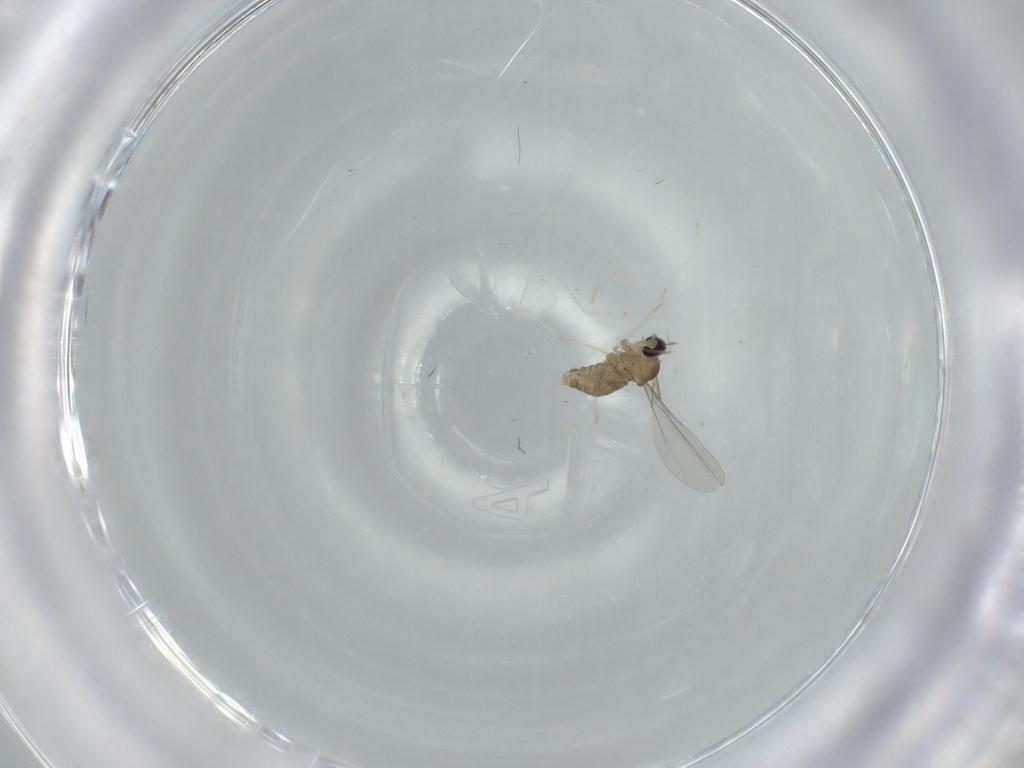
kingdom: Animalia
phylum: Arthropoda
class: Insecta
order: Diptera
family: Cecidomyiidae
